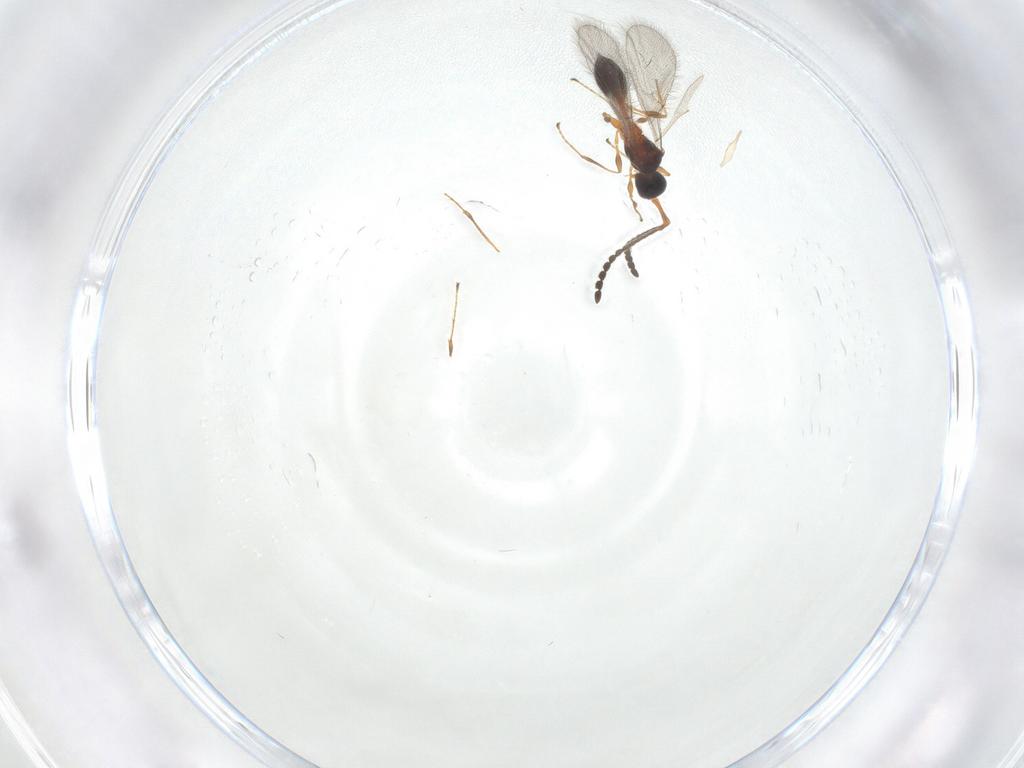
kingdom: Animalia
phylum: Arthropoda
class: Insecta
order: Hymenoptera
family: Diapriidae
